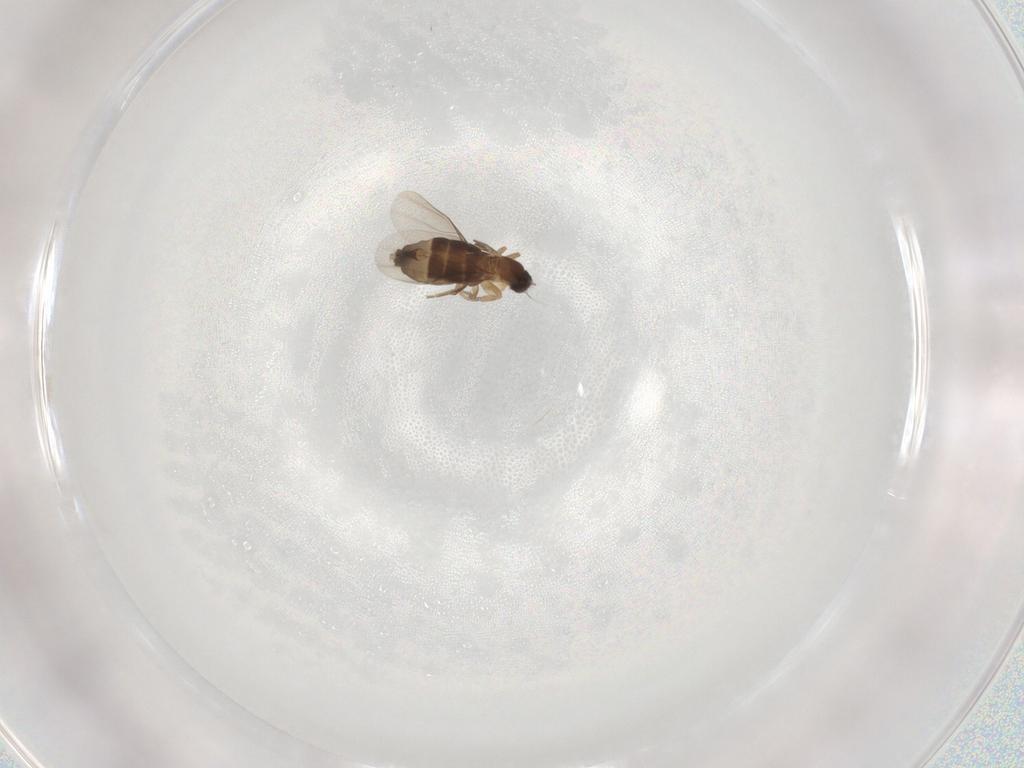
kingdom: Animalia
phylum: Arthropoda
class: Insecta
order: Diptera
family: Phoridae
